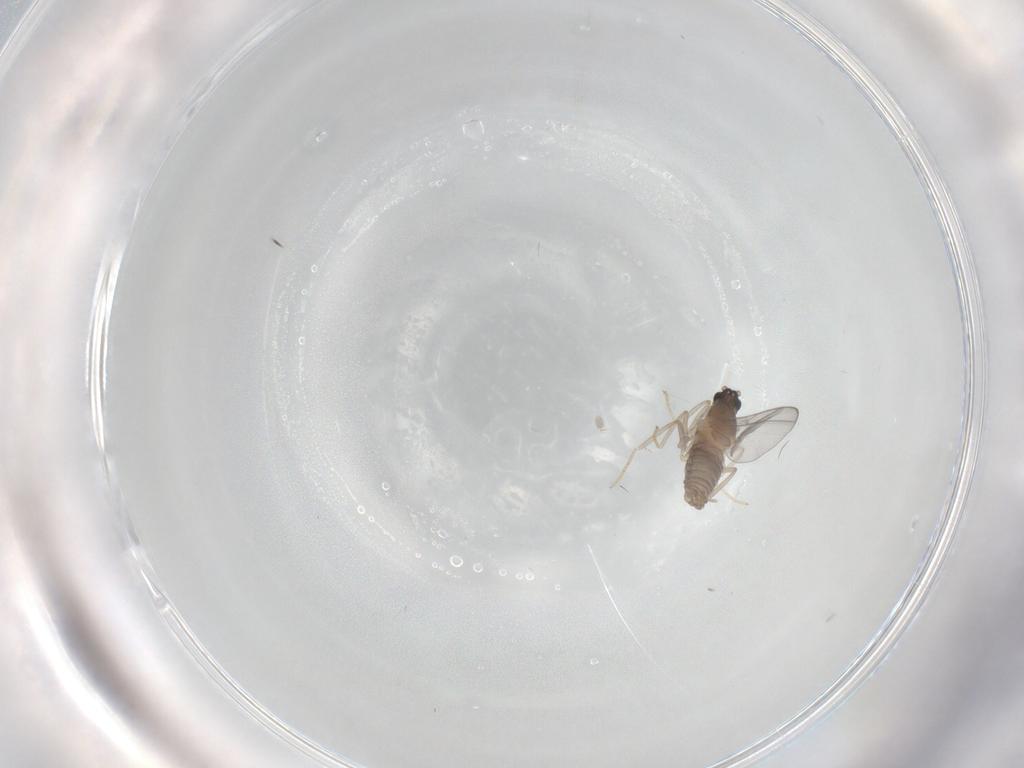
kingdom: Animalia
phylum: Arthropoda
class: Insecta
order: Diptera
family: Cecidomyiidae
